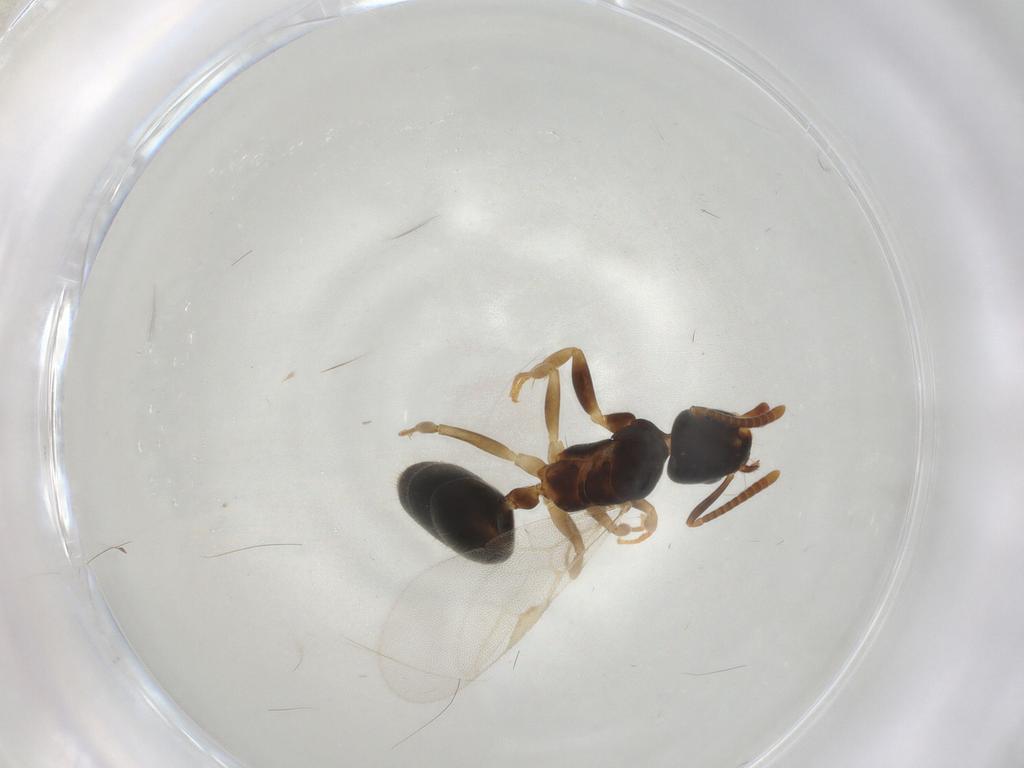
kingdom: Animalia
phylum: Arthropoda
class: Insecta
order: Hymenoptera
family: Formicidae
